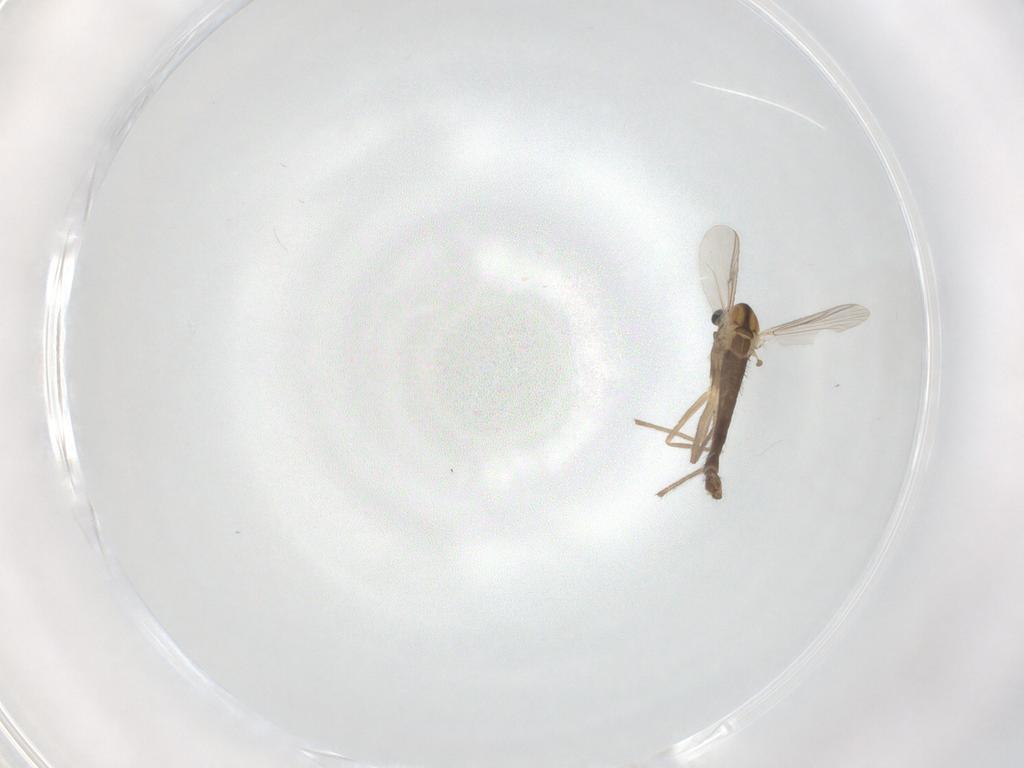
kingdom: Animalia
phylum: Arthropoda
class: Insecta
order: Diptera
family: Chironomidae
